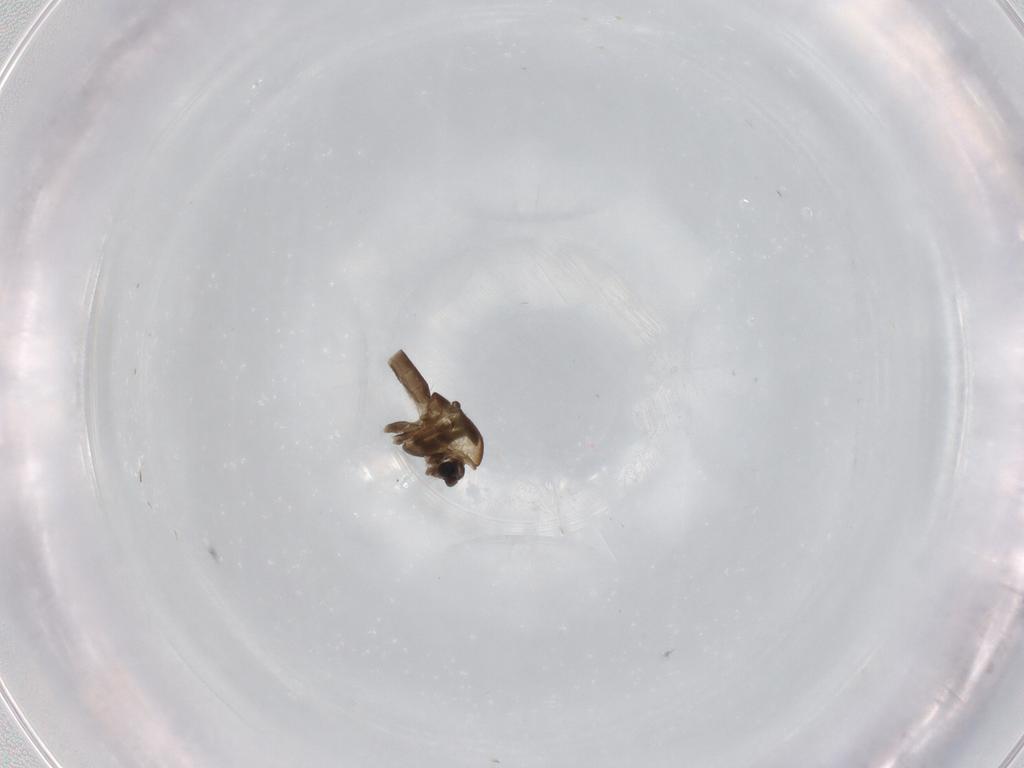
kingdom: Animalia
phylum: Arthropoda
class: Insecta
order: Diptera
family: Chironomidae
